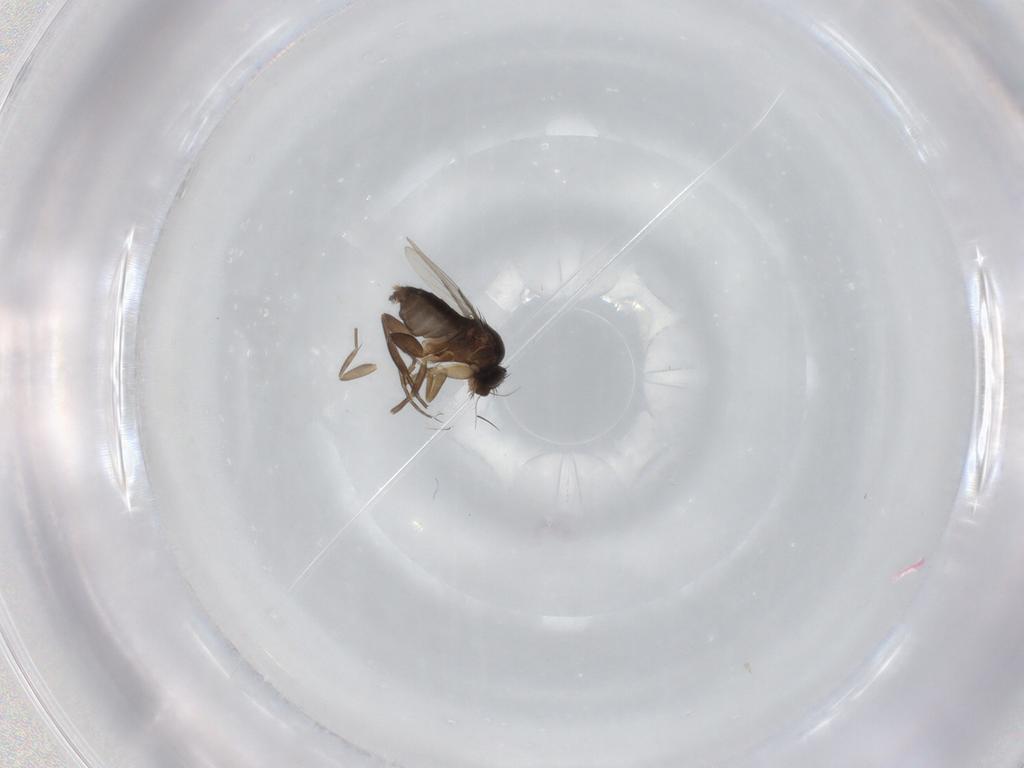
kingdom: Animalia
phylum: Arthropoda
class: Insecta
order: Diptera
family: Phoridae
